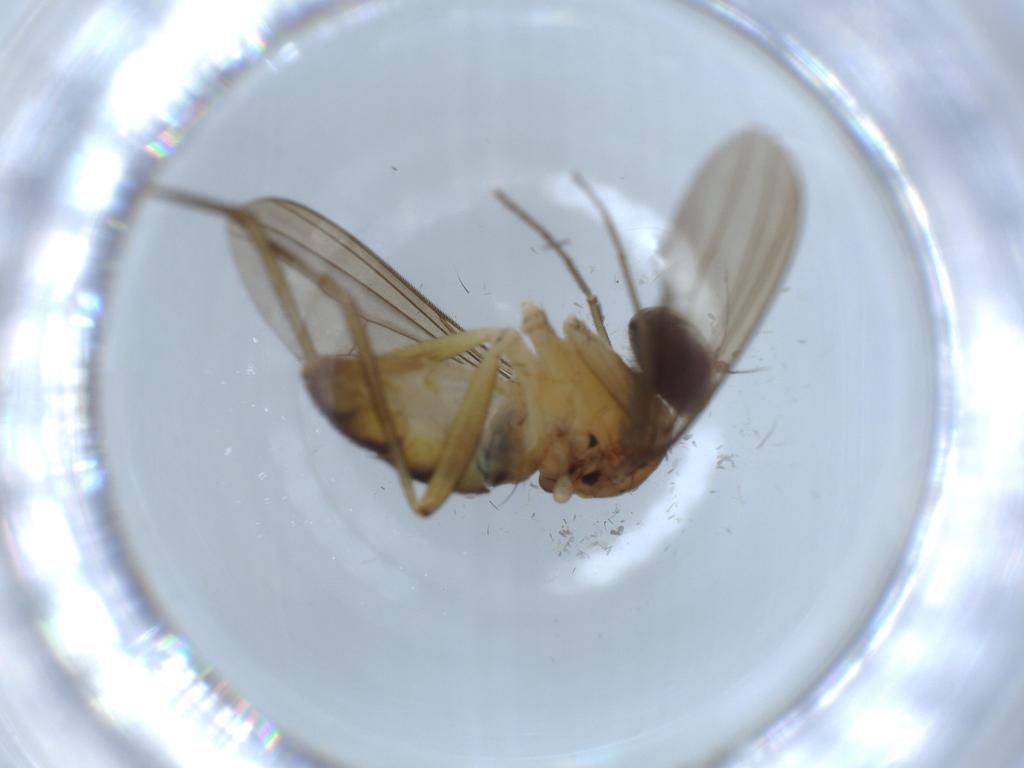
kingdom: Animalia
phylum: Arthropoda
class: Insecta
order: Diptera
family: Dolichopodidae
